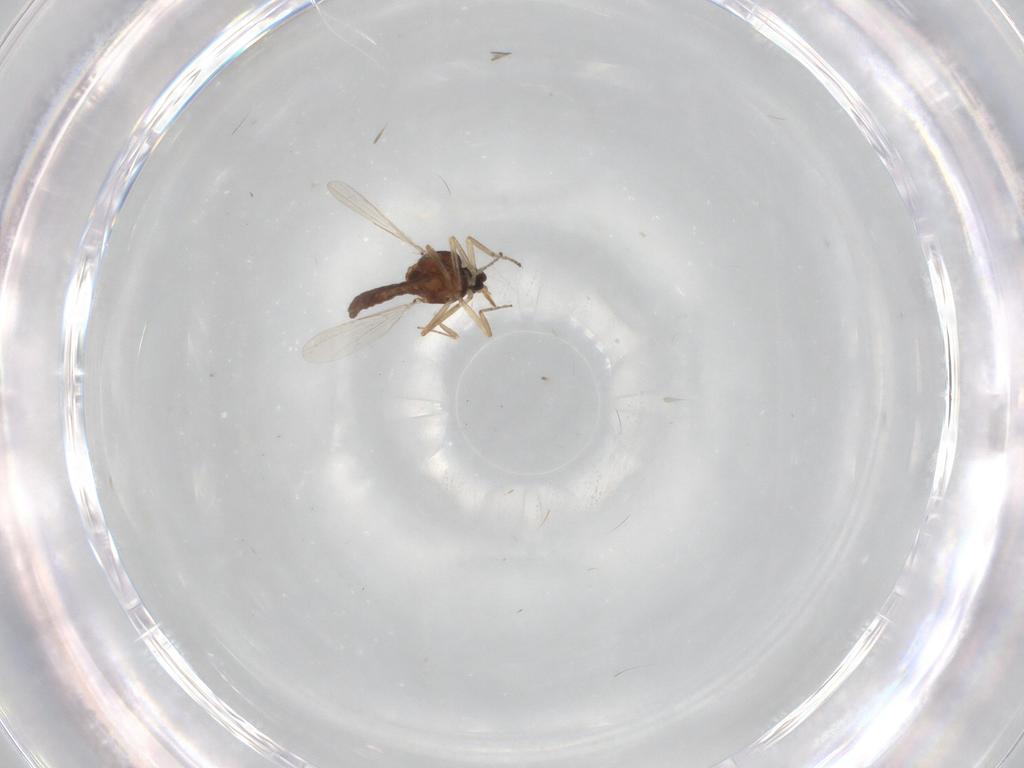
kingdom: Animalia
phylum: Arthropoda
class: Insecta
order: Diptera
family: Ceratopogonidae
